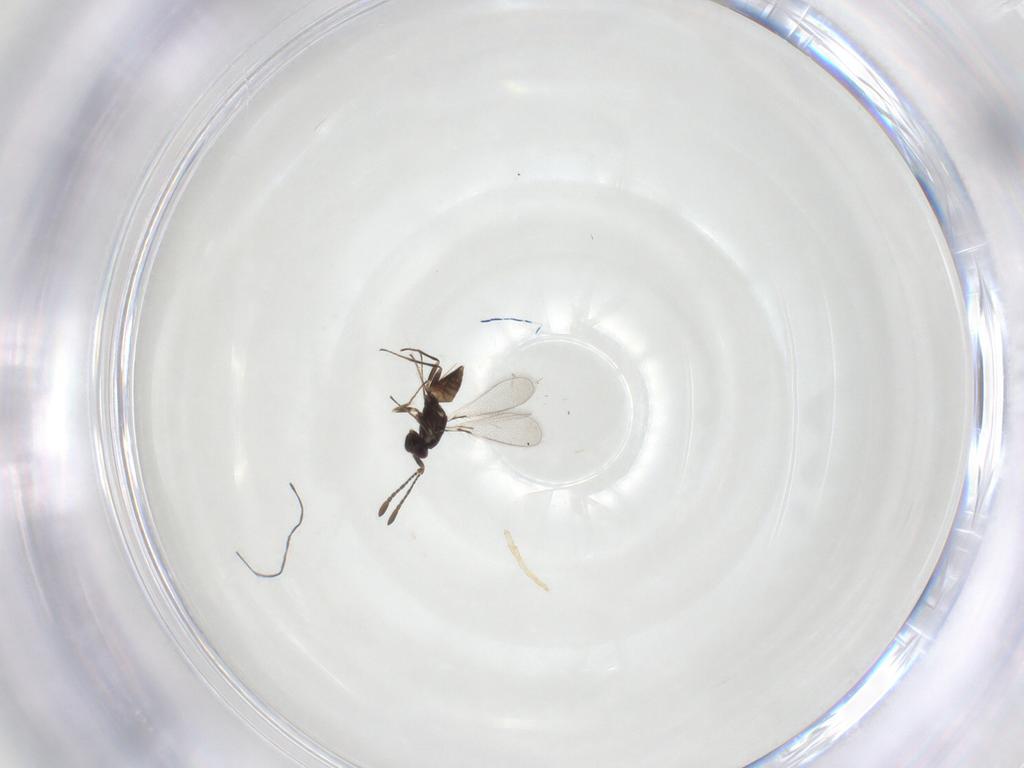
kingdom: Animalia
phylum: Arthropoda
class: Insecta
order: Hymenoptera
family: Mymaridae
